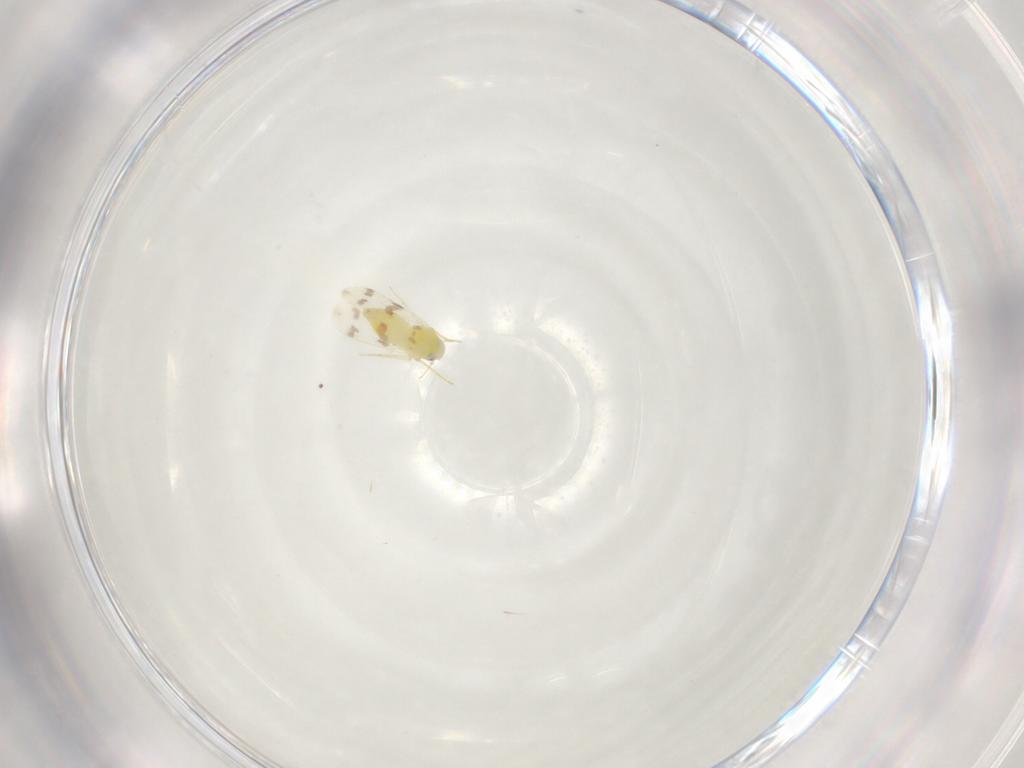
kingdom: Animalia
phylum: Arthropoda
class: Insecta
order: Hemiptera
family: Aleyrodidae
